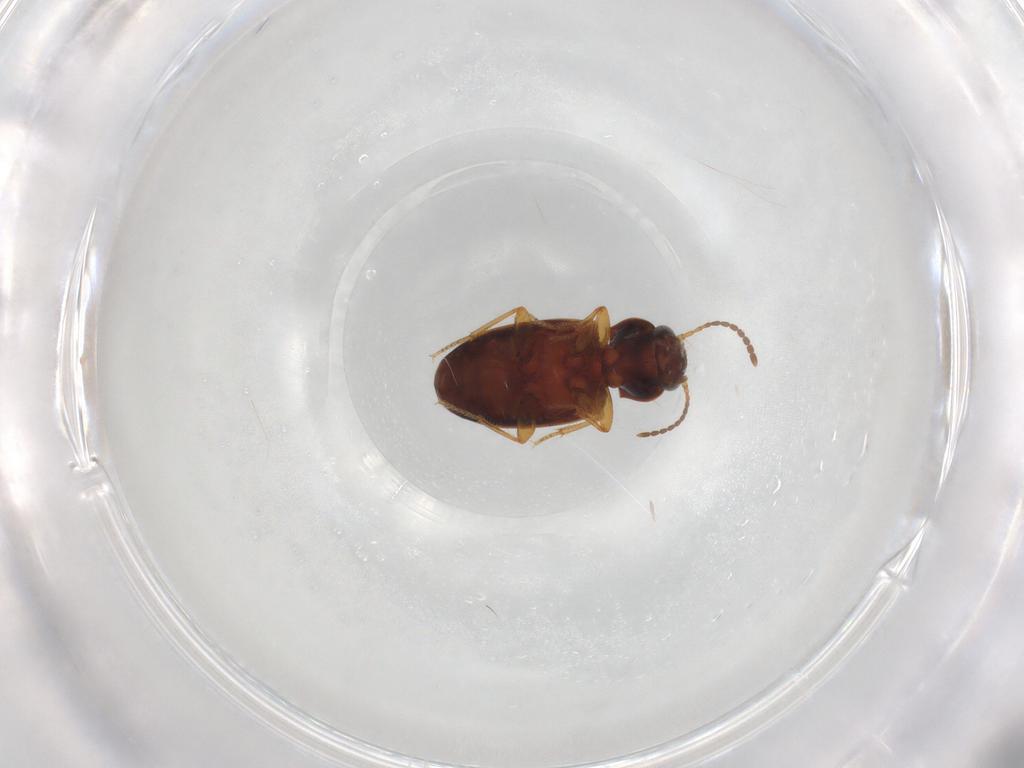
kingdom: Animalia
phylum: Arthropoda
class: Insecta
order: Coleoptera
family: Carabidae
